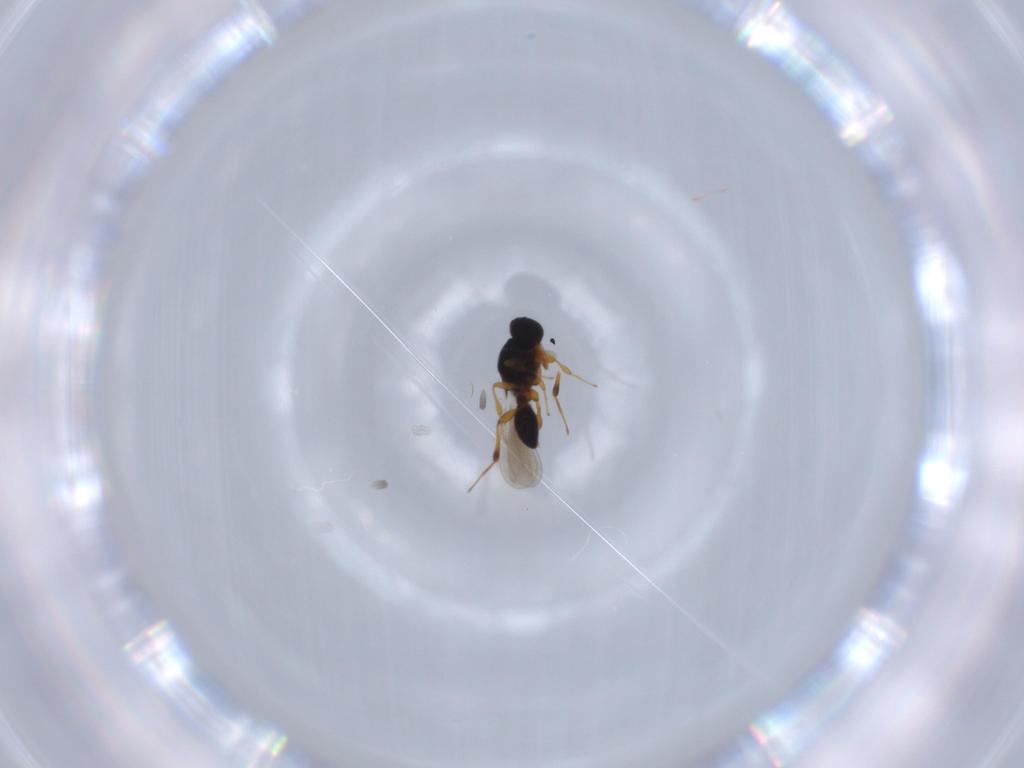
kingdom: Animalia
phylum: Arthropoda
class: Insecta
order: Hymenoptera
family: Platygastridae
